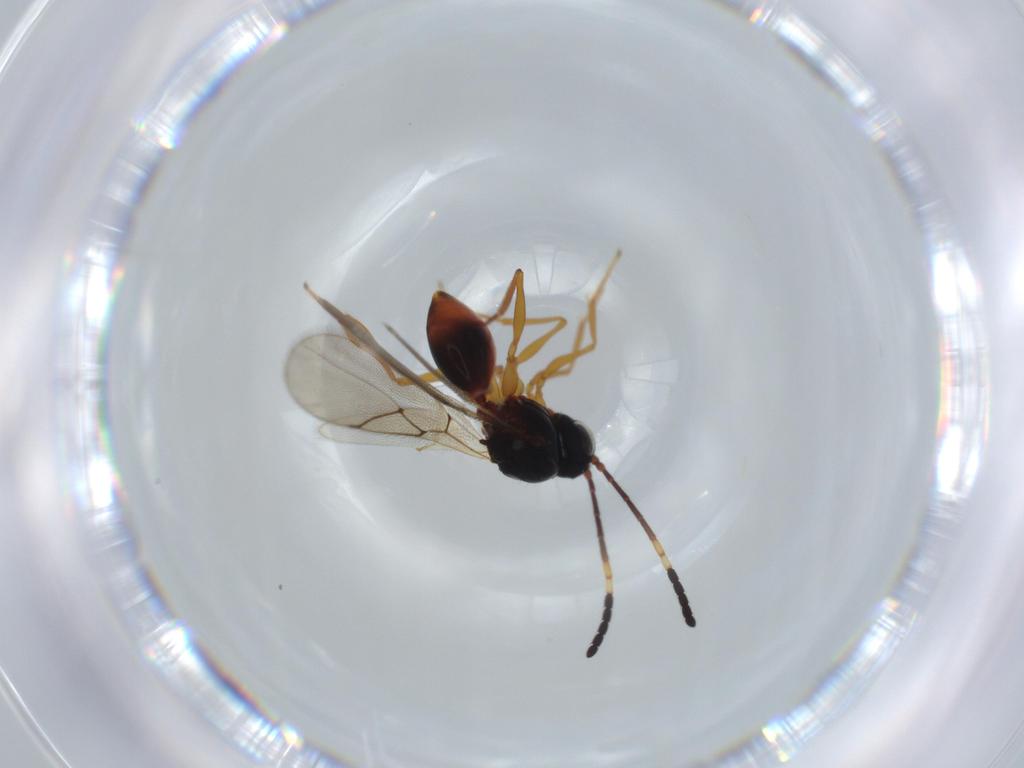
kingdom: Animalia
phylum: Arthropoda
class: Insecta
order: Hymenoptera
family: Figitidae
